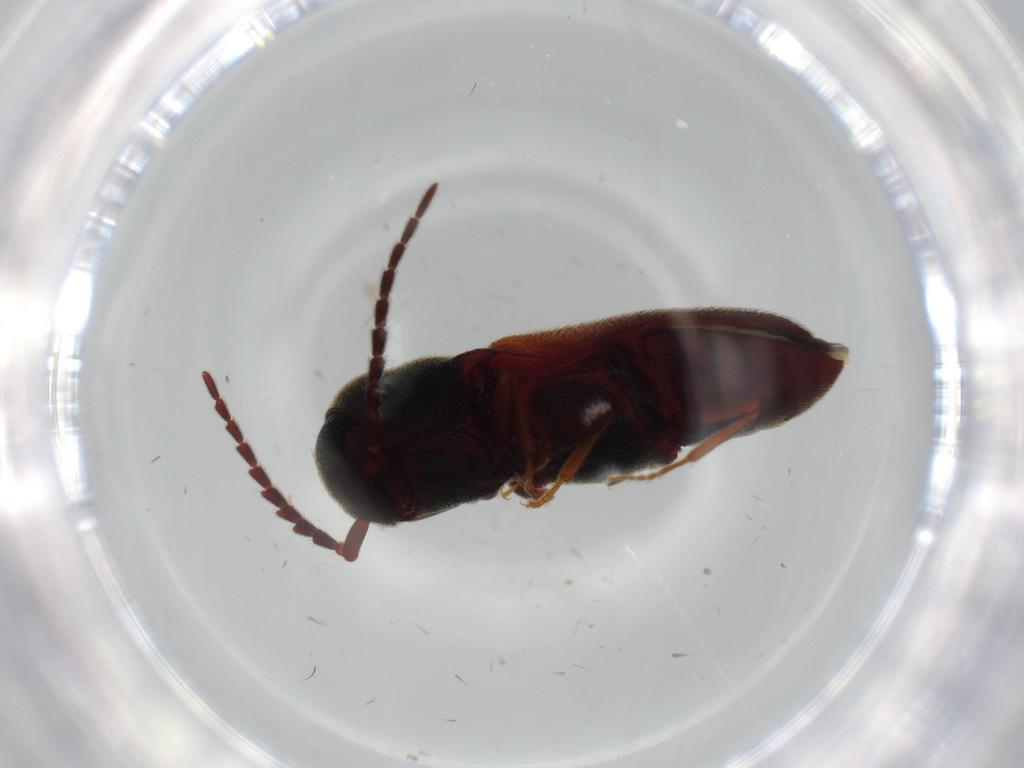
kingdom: Animalia
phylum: Arthropoda
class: Insecta
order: Coleoptera
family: Eucnemidae
